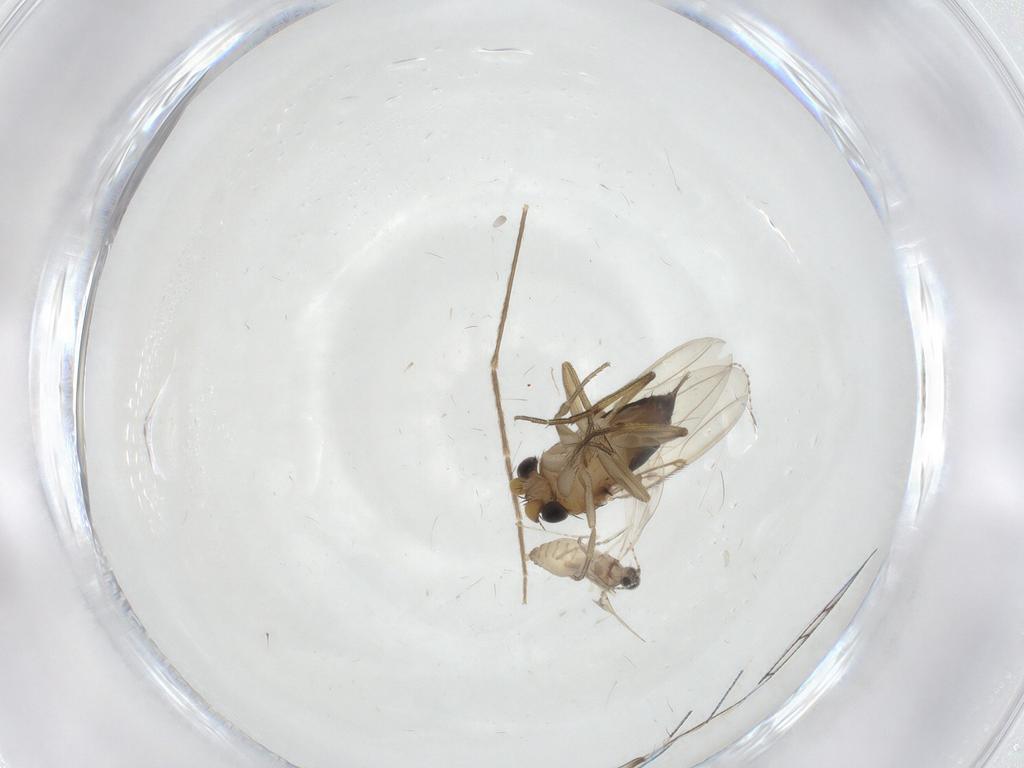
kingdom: Animalia
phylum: Arthropoda
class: Insecta
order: Diptera
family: Cecidomyiidae
